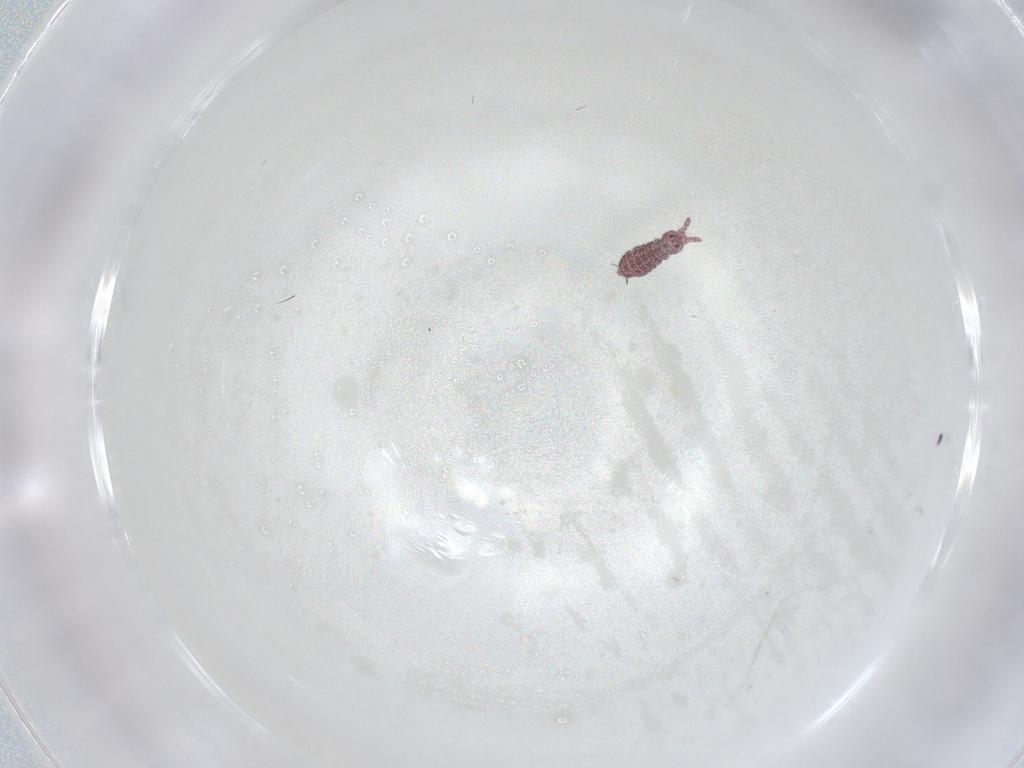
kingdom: Animalia
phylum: Arthropoda
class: Collembola
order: Poduromorpha
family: Hypogastruridae
